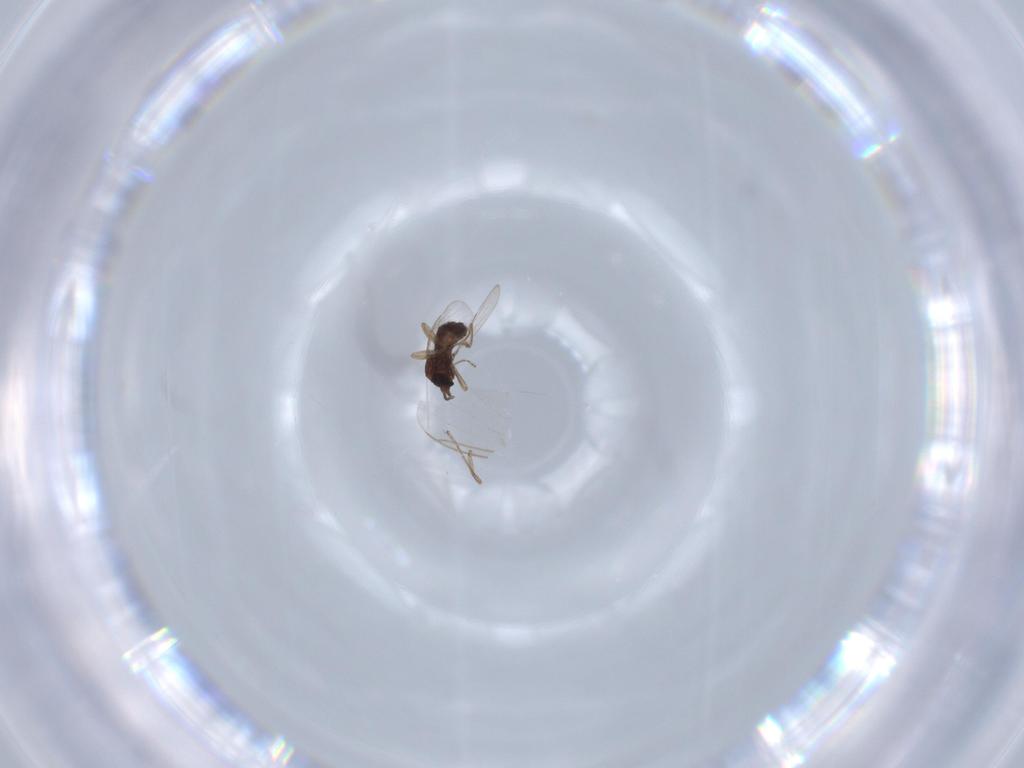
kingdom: Animalia
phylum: Arthropoda
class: Insecta
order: Diptera
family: Ceratopogonidae
